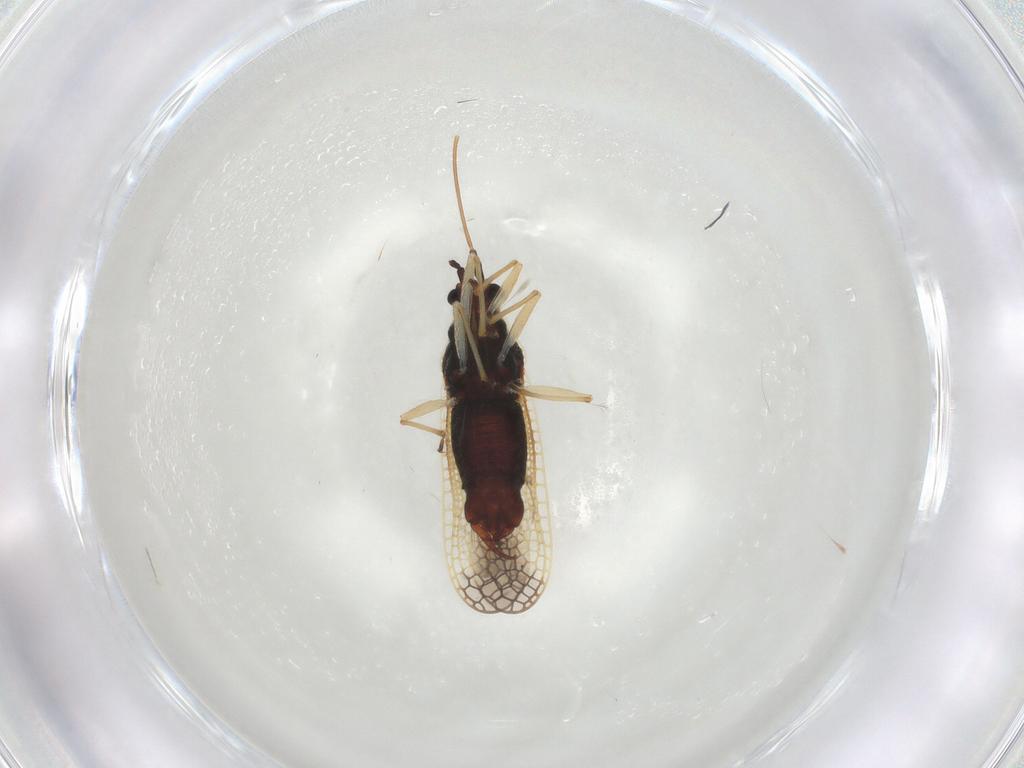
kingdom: Animalia
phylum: Arthropoda
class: Insecta
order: Hemiptera
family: Tingidae
